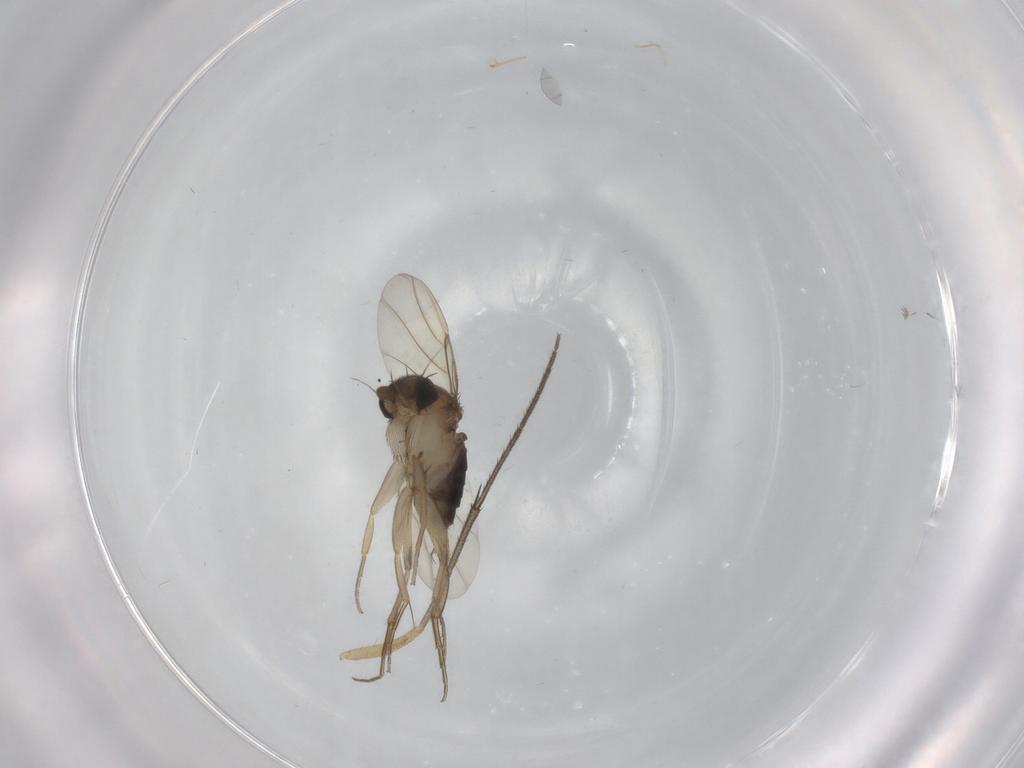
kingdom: Animalia
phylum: Arthropoda
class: Insecta
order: Diptera
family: Phoridae
